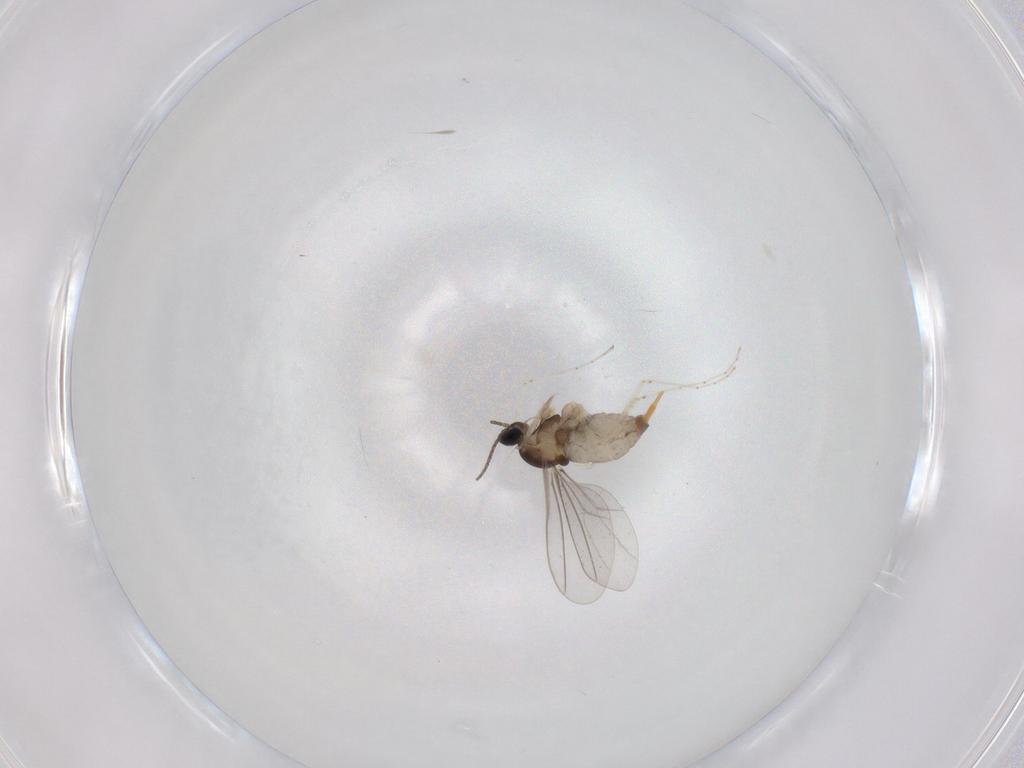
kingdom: Animalia
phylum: Arthropoda
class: Insecta
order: Diptera
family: Cecidomyiidae
